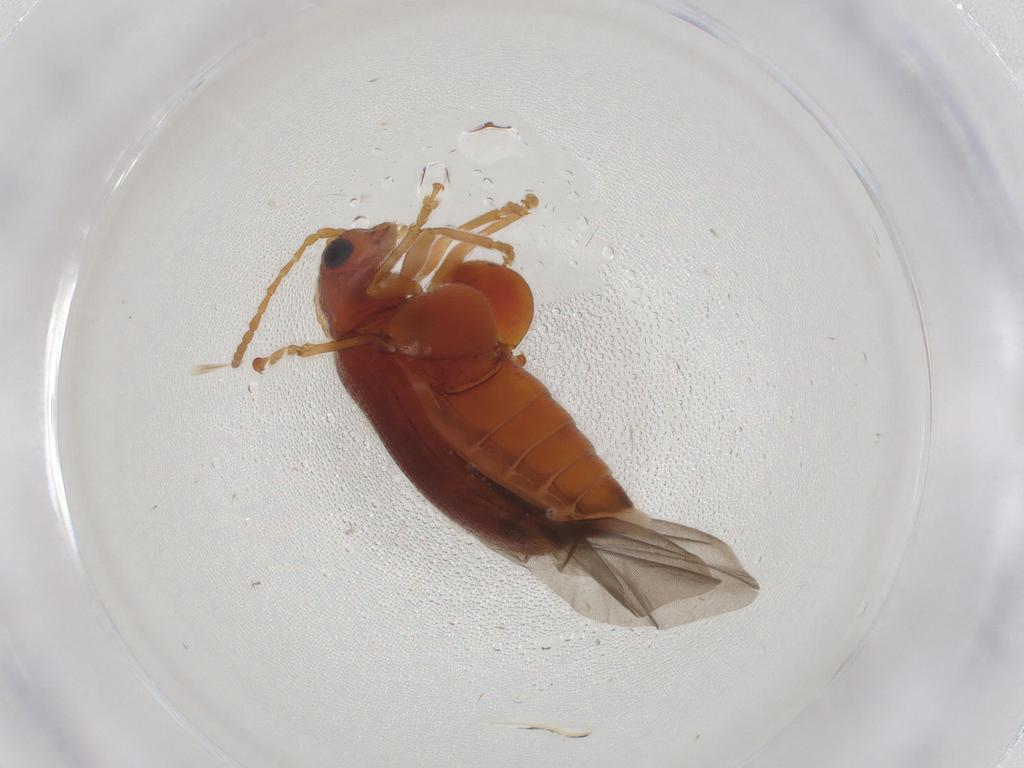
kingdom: Animalia
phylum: Arthropoda
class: Insecta
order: Coleoptera
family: Chrysomelidae
